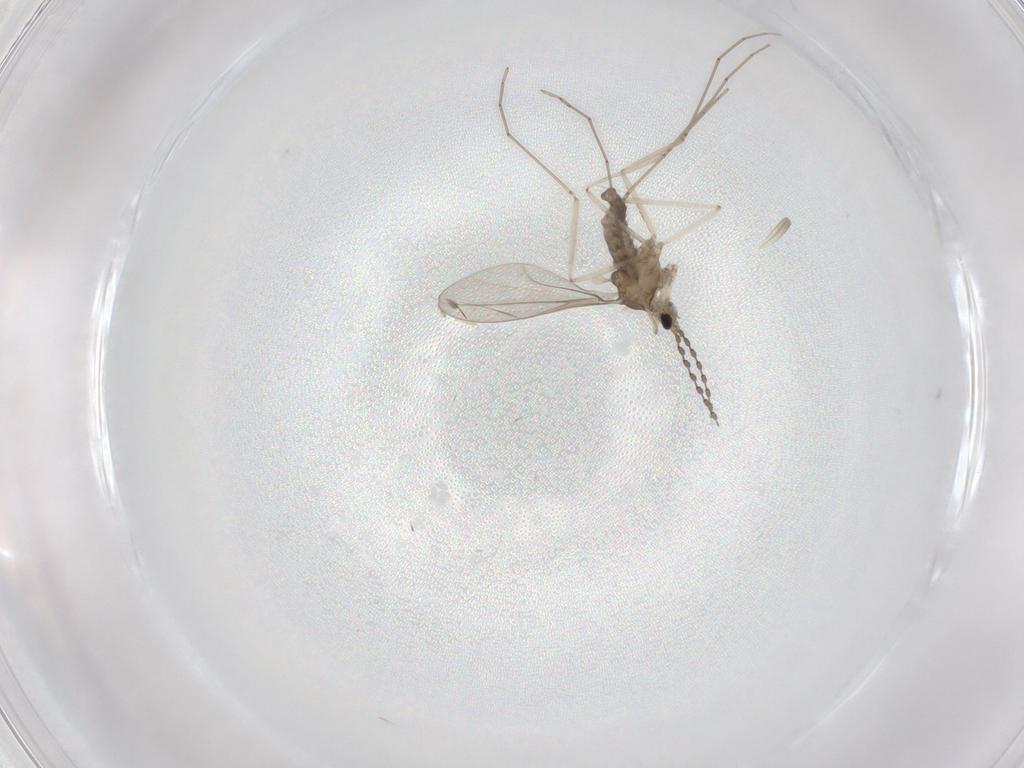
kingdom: Animalia
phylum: Arthropoda
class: Insecta
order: Diptera
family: Cecidomyiidae
